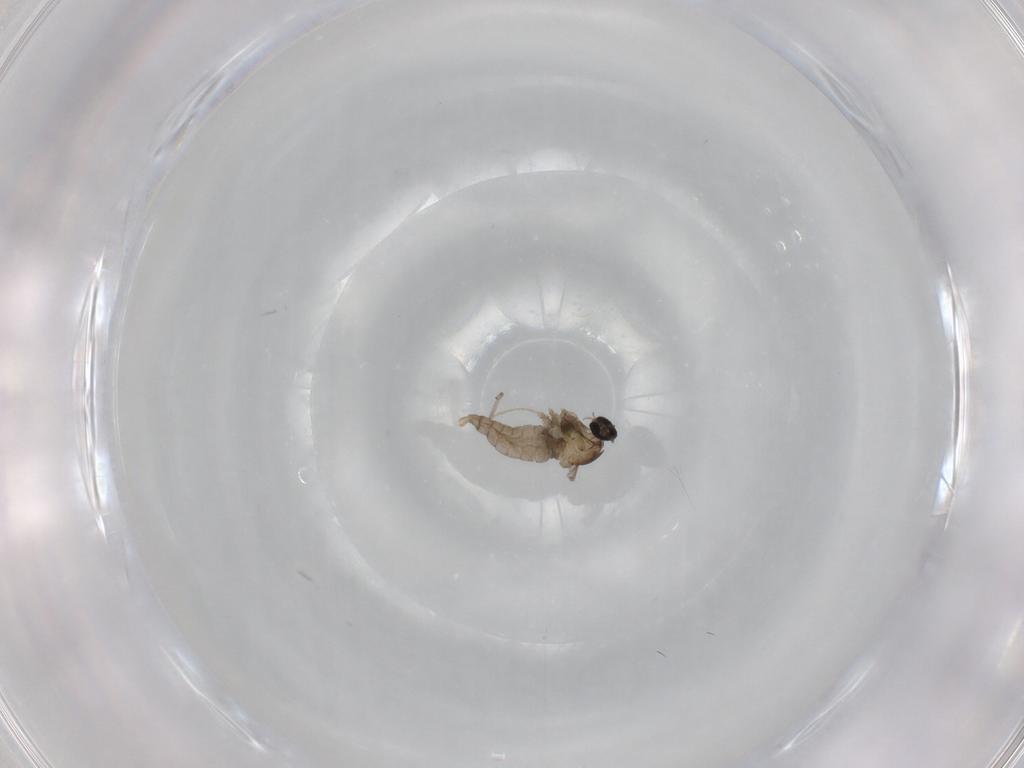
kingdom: Animalia
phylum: Arthropoda
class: Insecta
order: Diptera
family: Cecidomyiidae
